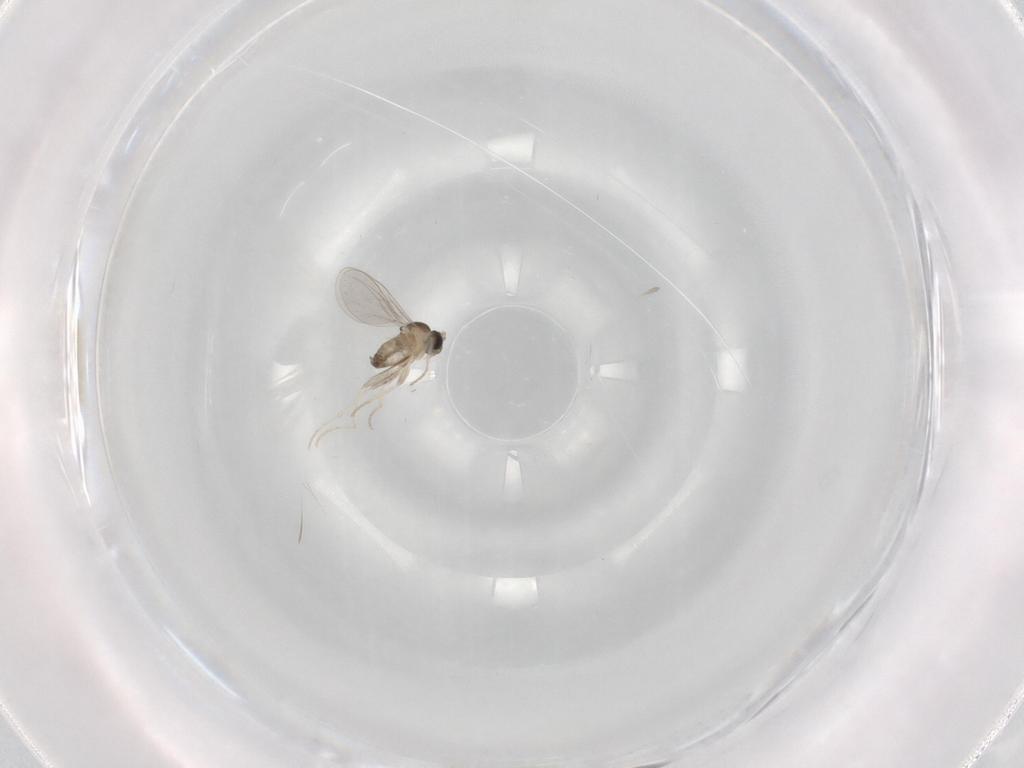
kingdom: Animalia
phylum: Arthropoda
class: Insecta
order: Diptera
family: Cecidomyiidae
